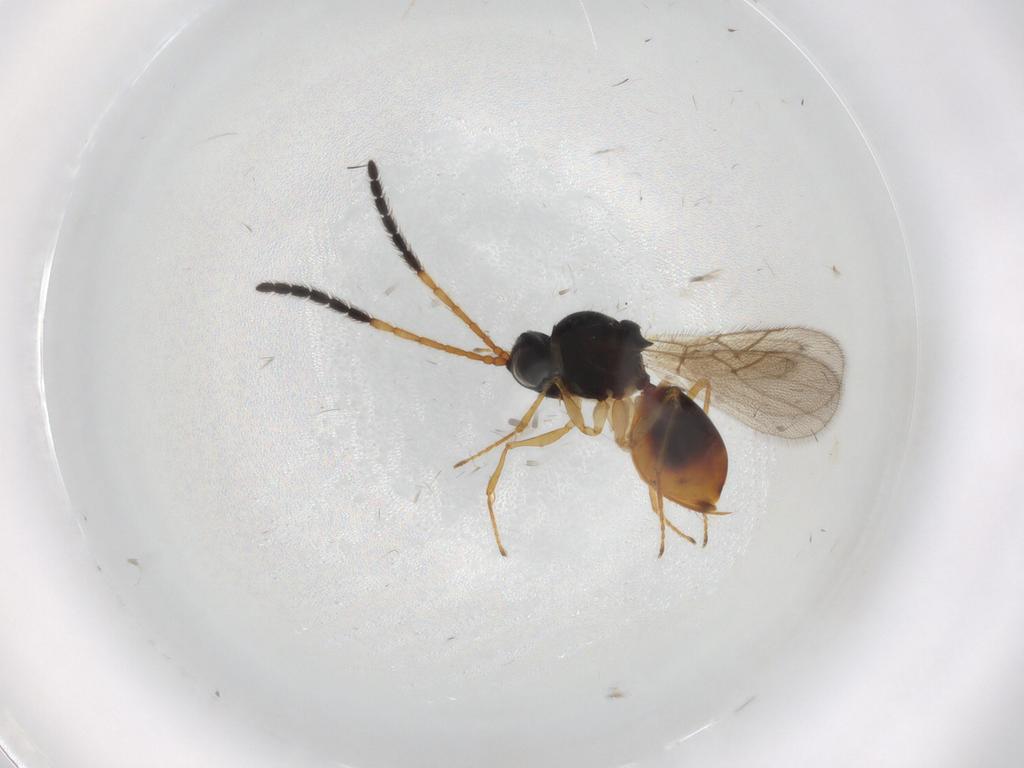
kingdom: Animalia
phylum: Arthropoda
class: Insecta
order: Hymenoptera
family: Figitidae
